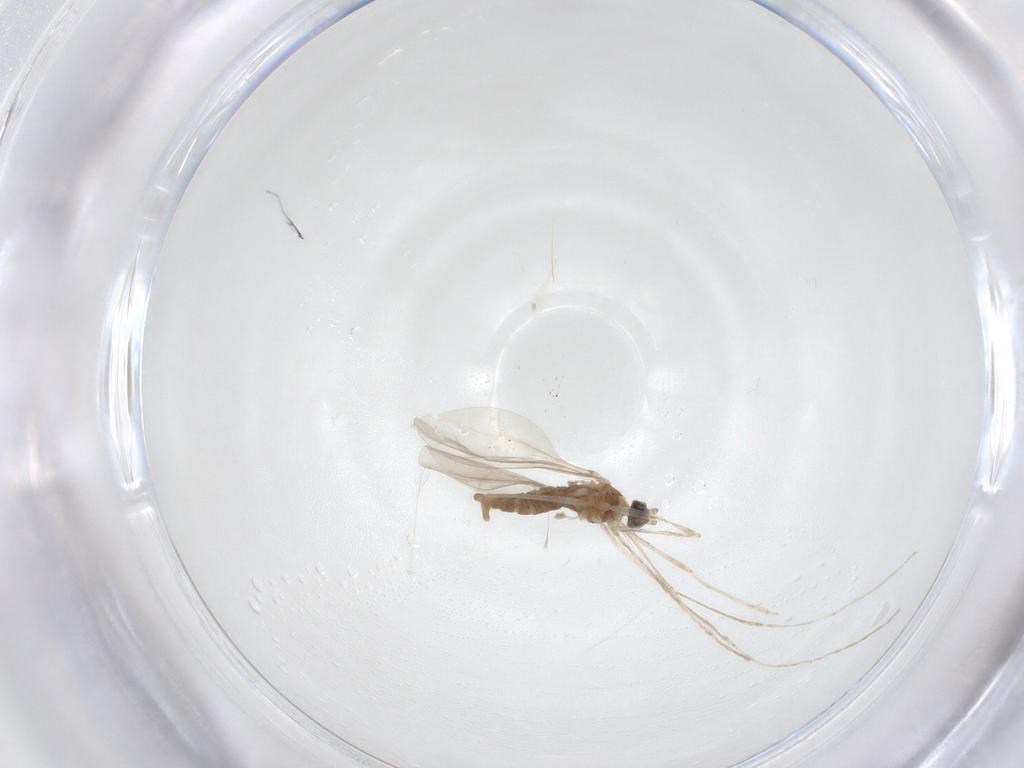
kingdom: Animalia
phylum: Arthropoda
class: Insecta
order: Diptera
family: Cecidomyiidae
